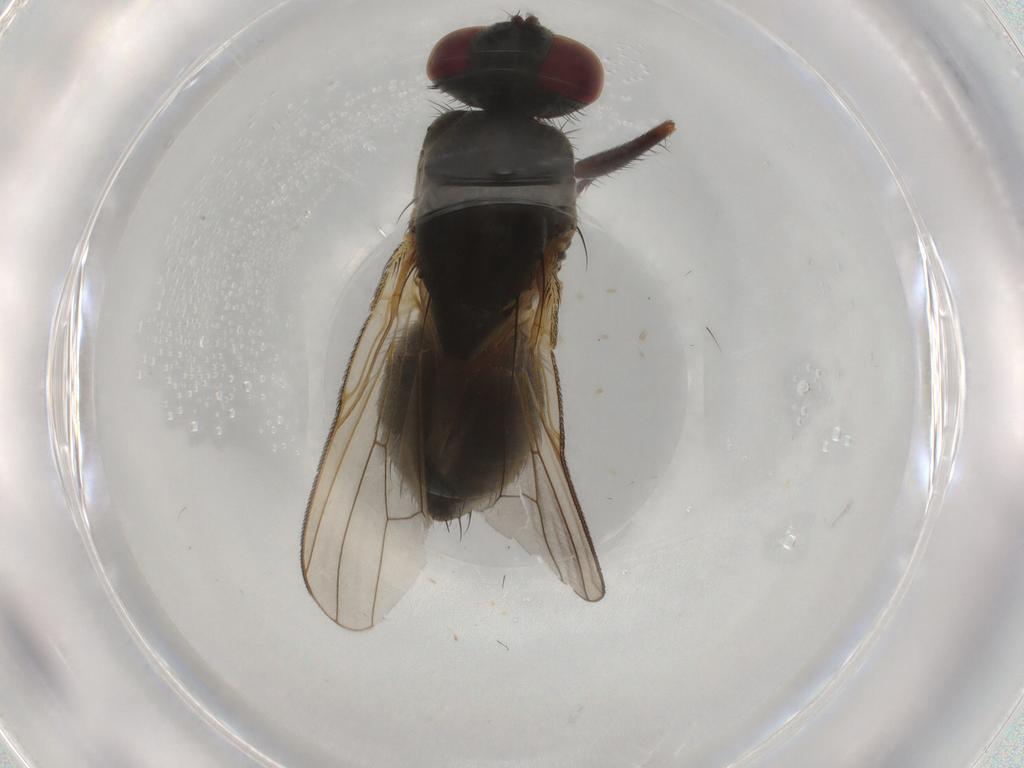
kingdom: Animalia
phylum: Arthropoda
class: Insecta
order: Diptera
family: Muscidae
